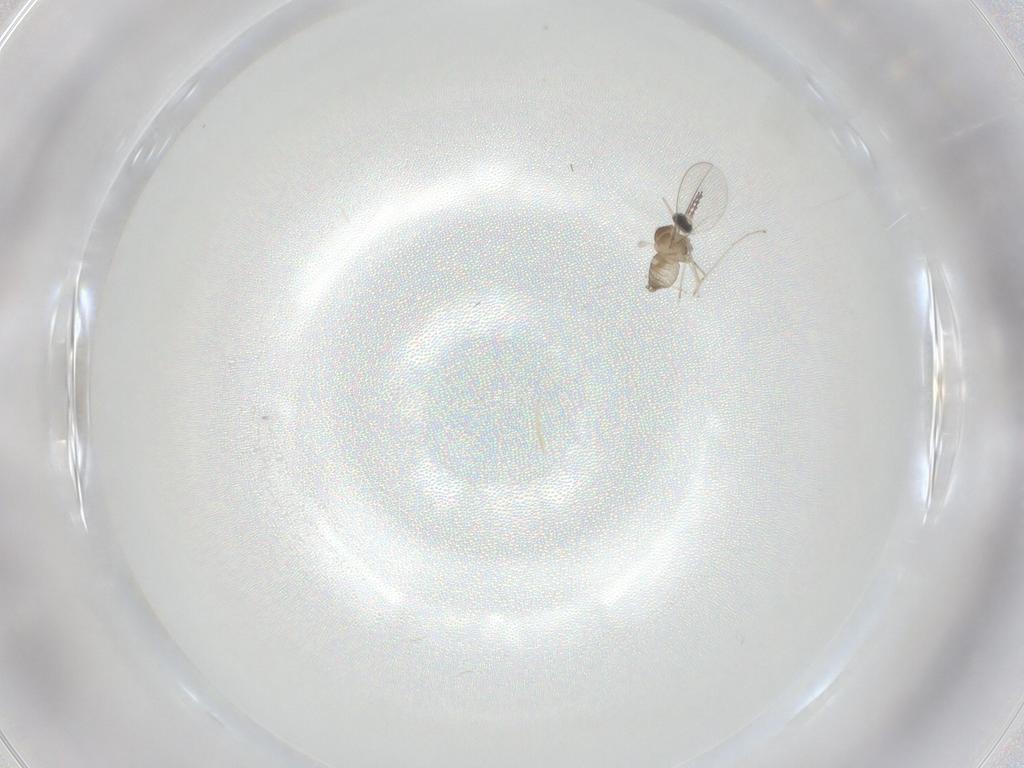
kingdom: Animalia
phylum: Arthropoda
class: Insecta
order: Diptera
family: Cecidomyiidae
